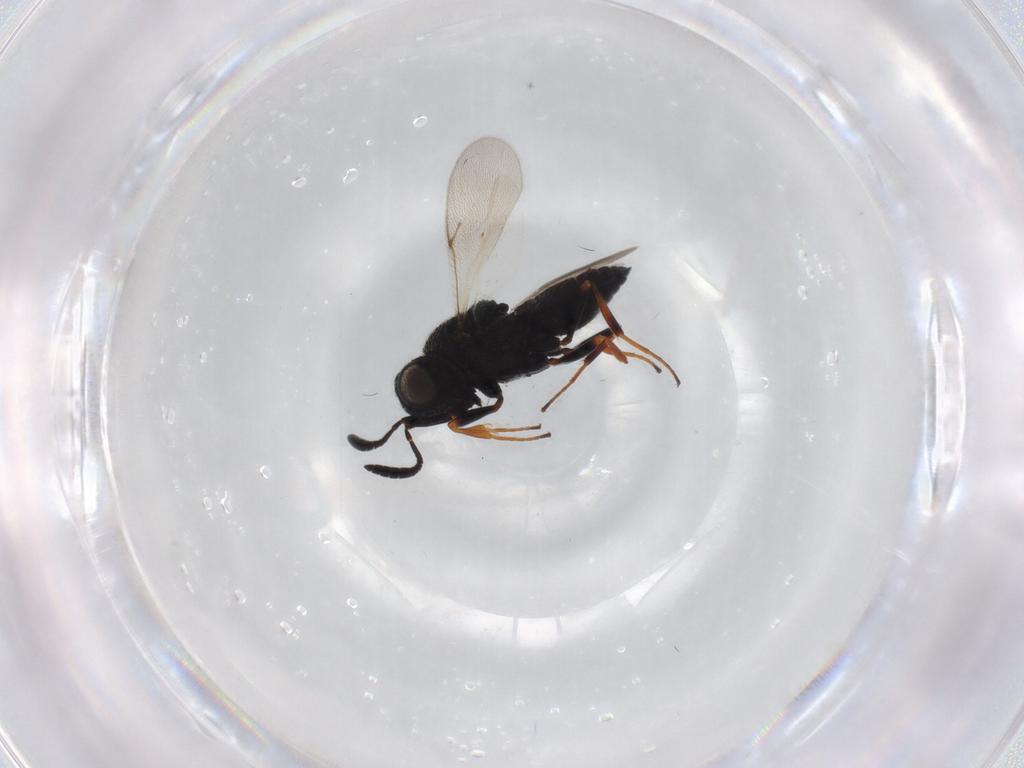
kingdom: Animalia
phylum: Arthropoda
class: Insecta
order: Hymenoptera
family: Scelionidae
